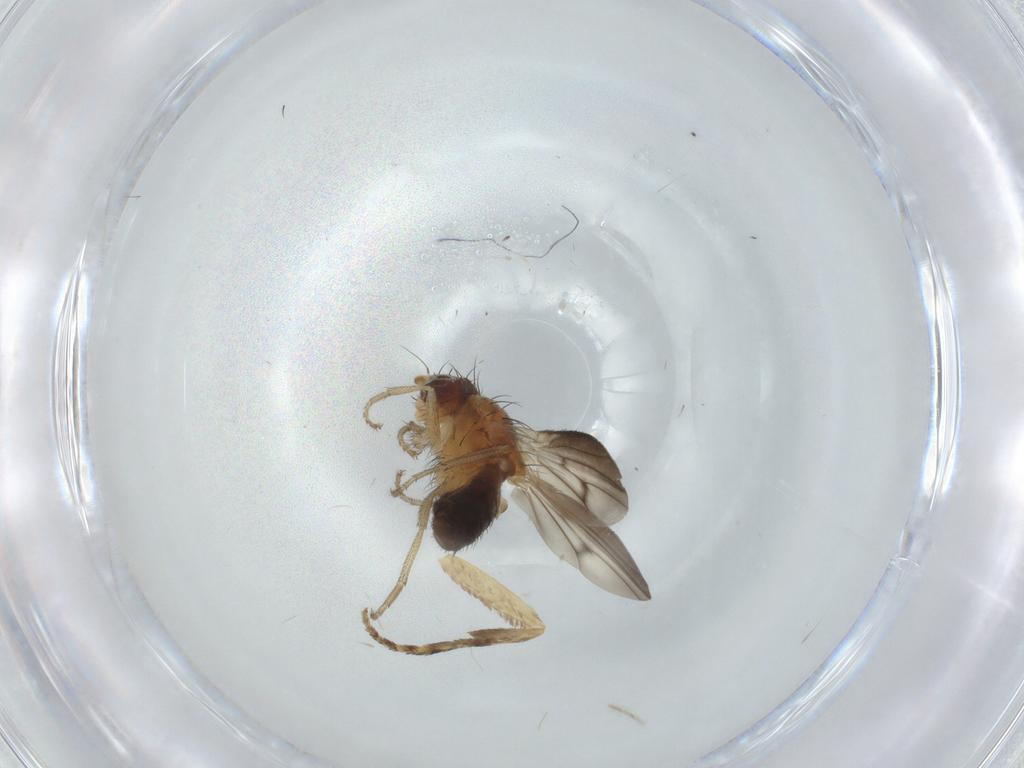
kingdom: Animalia
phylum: Arthropoda
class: Insecta
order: Diptera
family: Heleomyzidae
